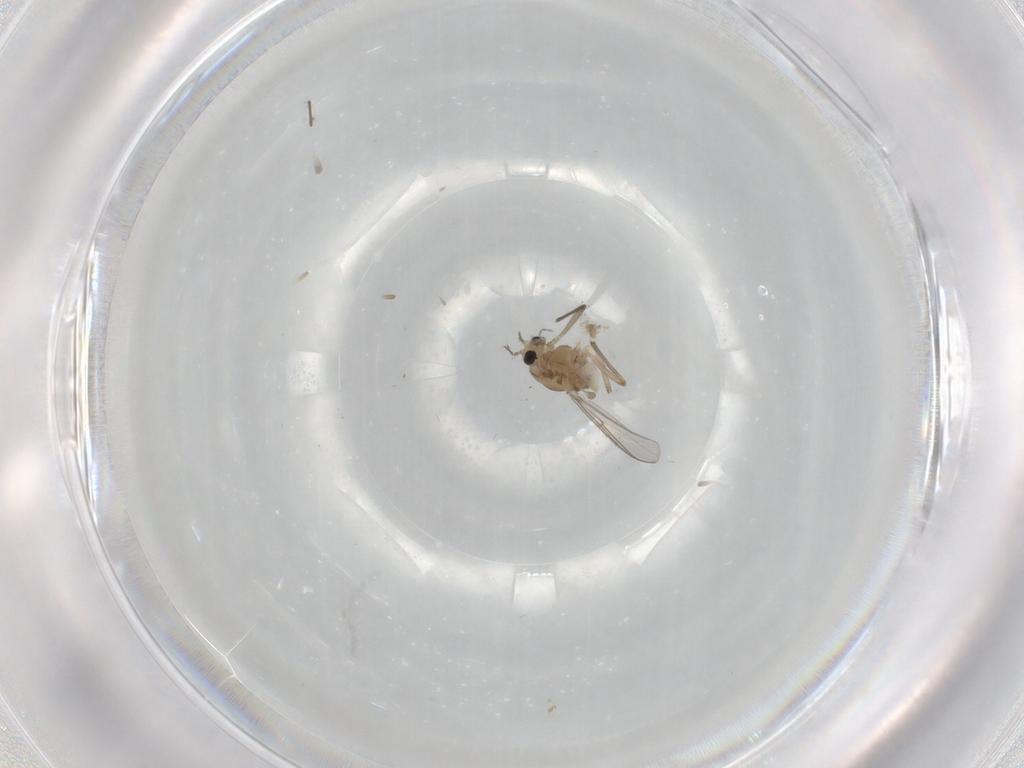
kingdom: Animalia
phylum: Arthropoda
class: Insecta
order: Diptera
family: Chironomidae
